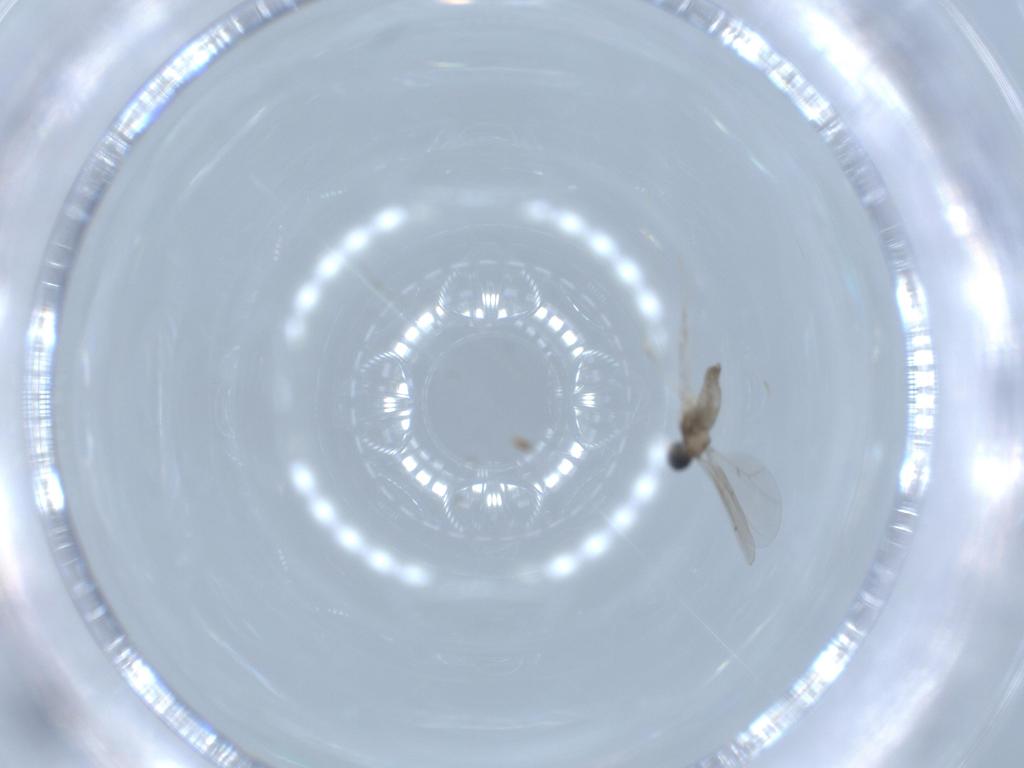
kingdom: Animalia
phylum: Arthropoda
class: Insecta
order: Diptera
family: Cecidomyiidae
